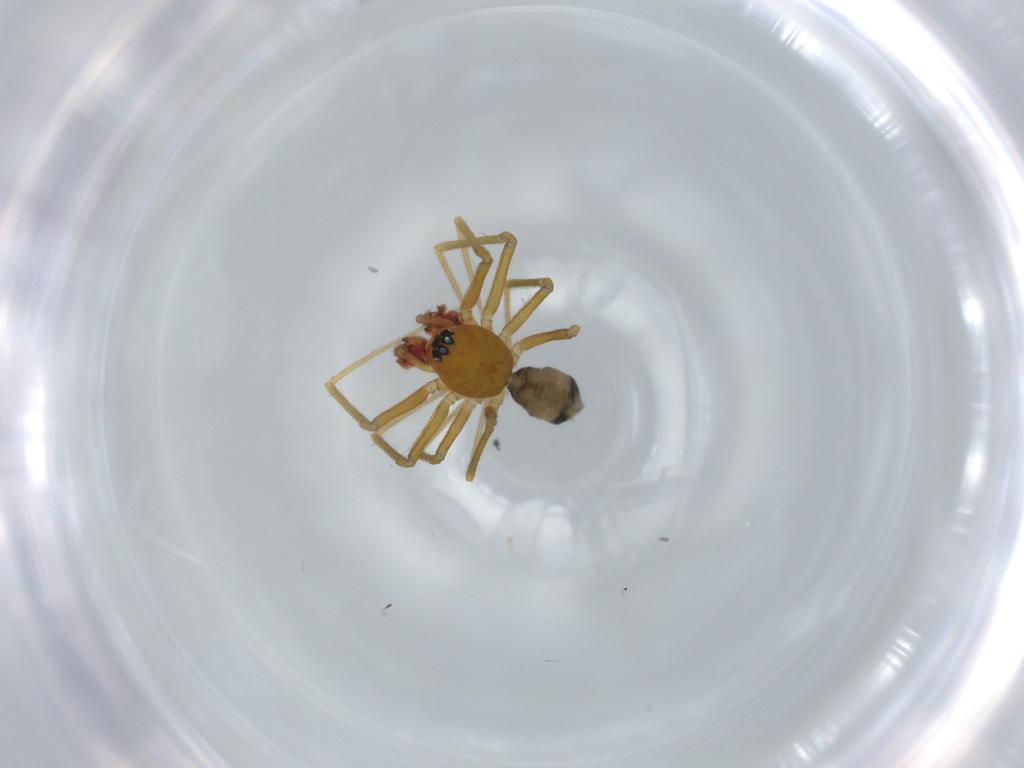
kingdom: Animalia
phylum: Arthropoda
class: Arachnida
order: Araneae
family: Linyphiidae
